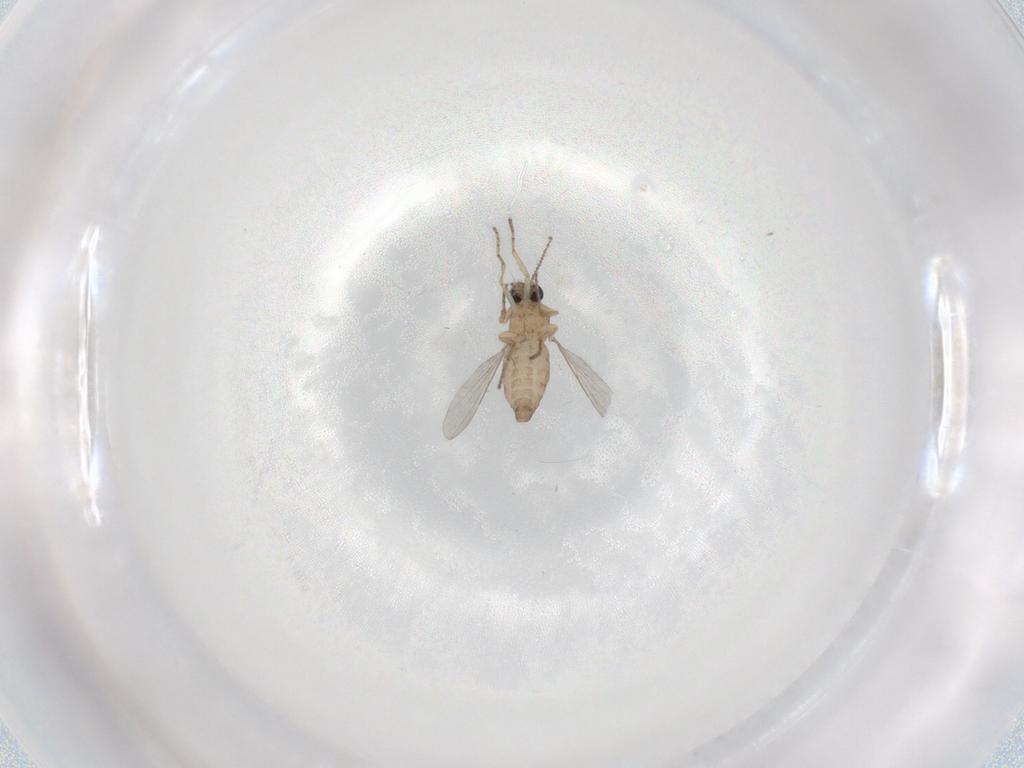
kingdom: Animalia
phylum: Arthropoda
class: Insecta
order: Diptera
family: Ceratopogonidae
